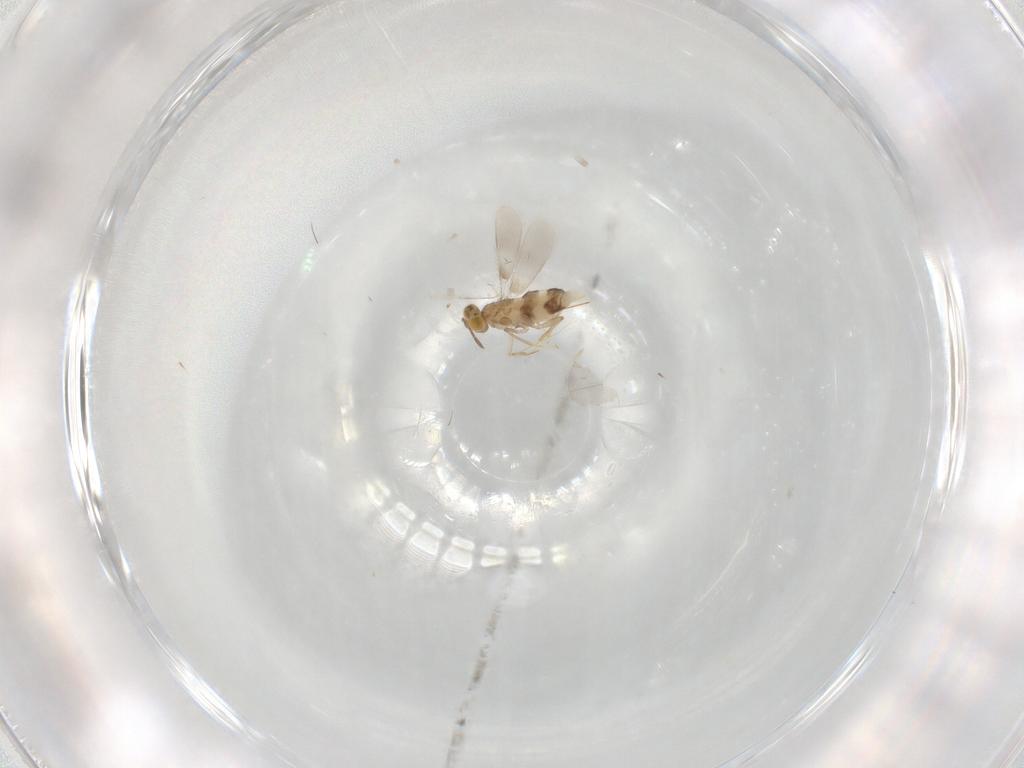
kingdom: Animalia
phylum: Arthropoda
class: Insecta
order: Hymenoptera
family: Aphelinidae
